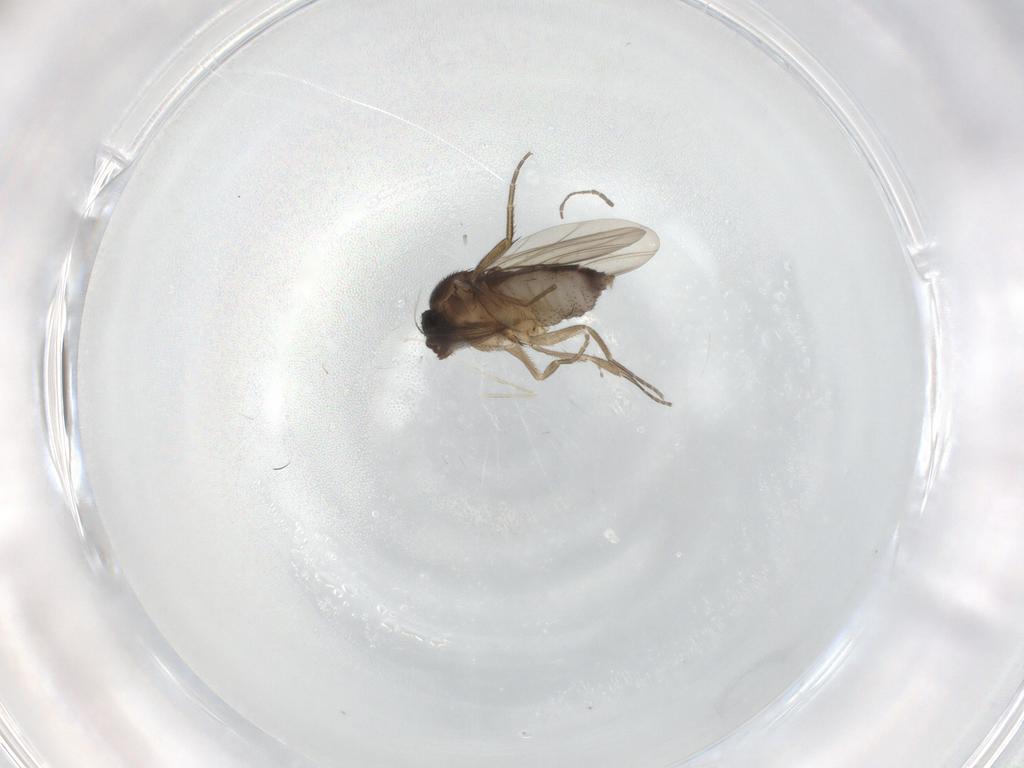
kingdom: Animalia
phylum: Arthropoda
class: Insecta
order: Diptera
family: Phoridae
